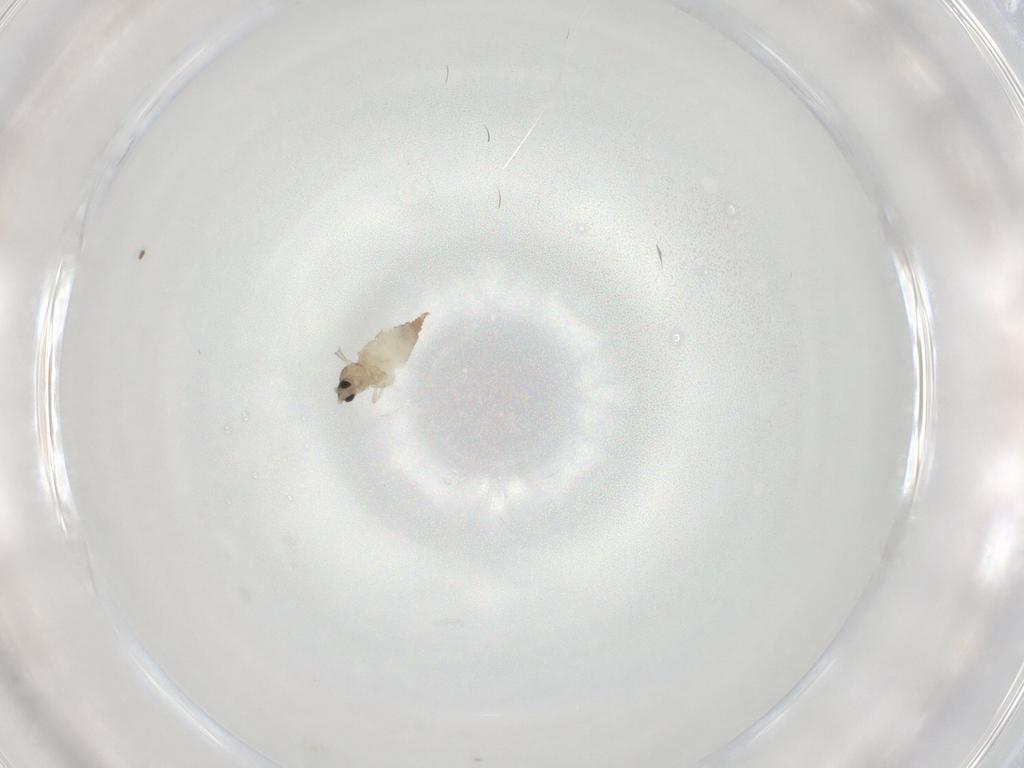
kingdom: Animalia
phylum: Arthropoda
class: Insecta
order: Diptera
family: Cecidomyiidae
